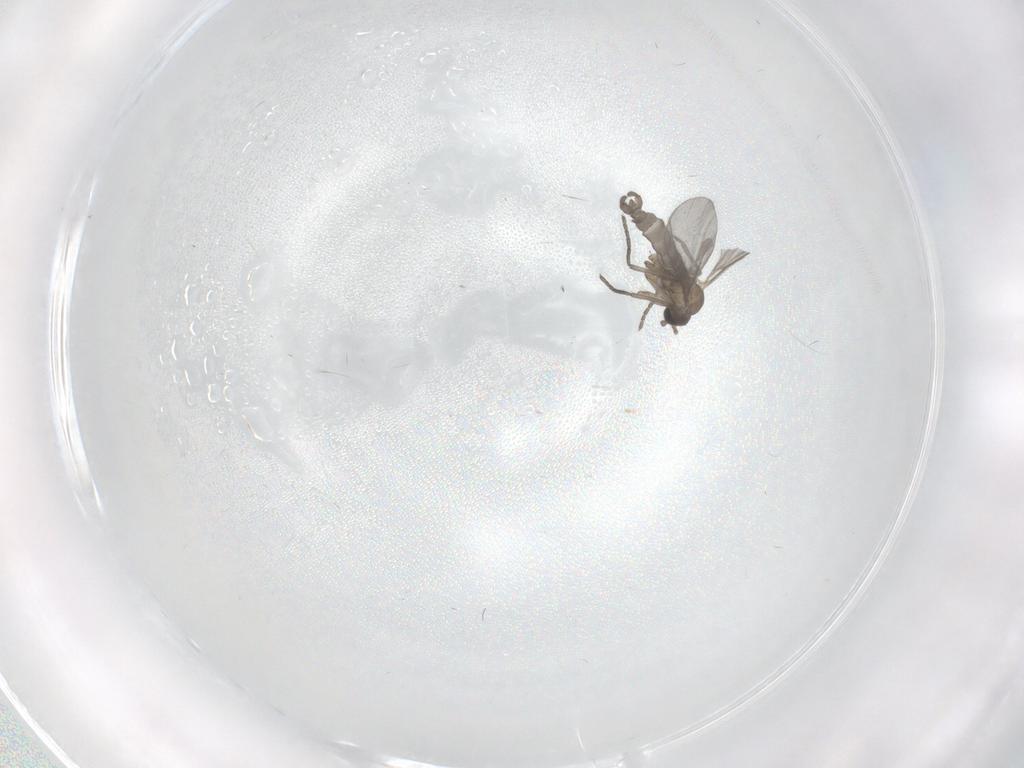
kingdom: Animalia
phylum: Arthropoda
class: Insecta
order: Diptera
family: Sciaridae
